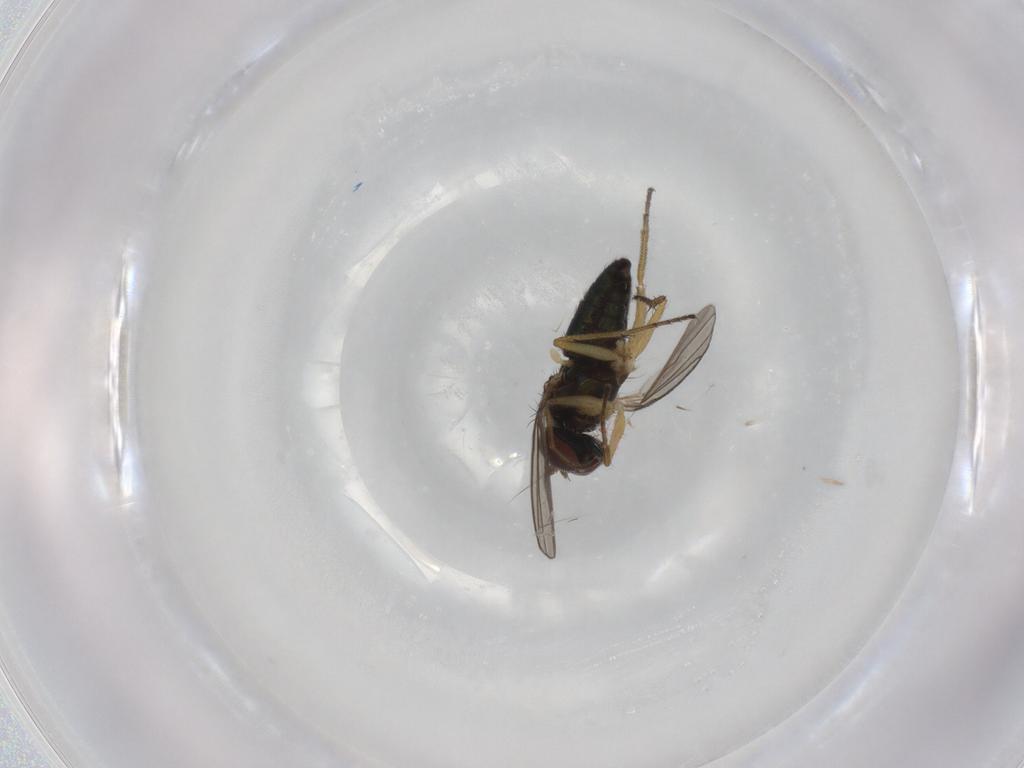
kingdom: Animalia
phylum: Arthropoda
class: Insecta
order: Diptera
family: Dolichopodidae
